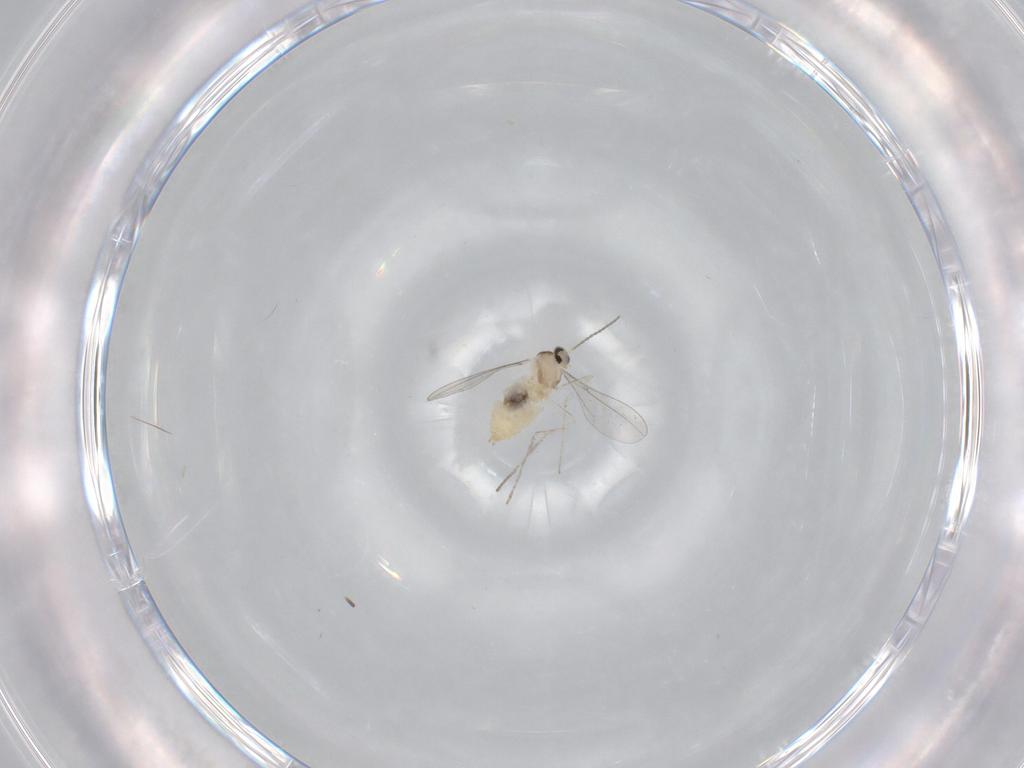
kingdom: Animalia
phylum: Arthropoda
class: Insecta
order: Diptera
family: Cecidomyiidae
